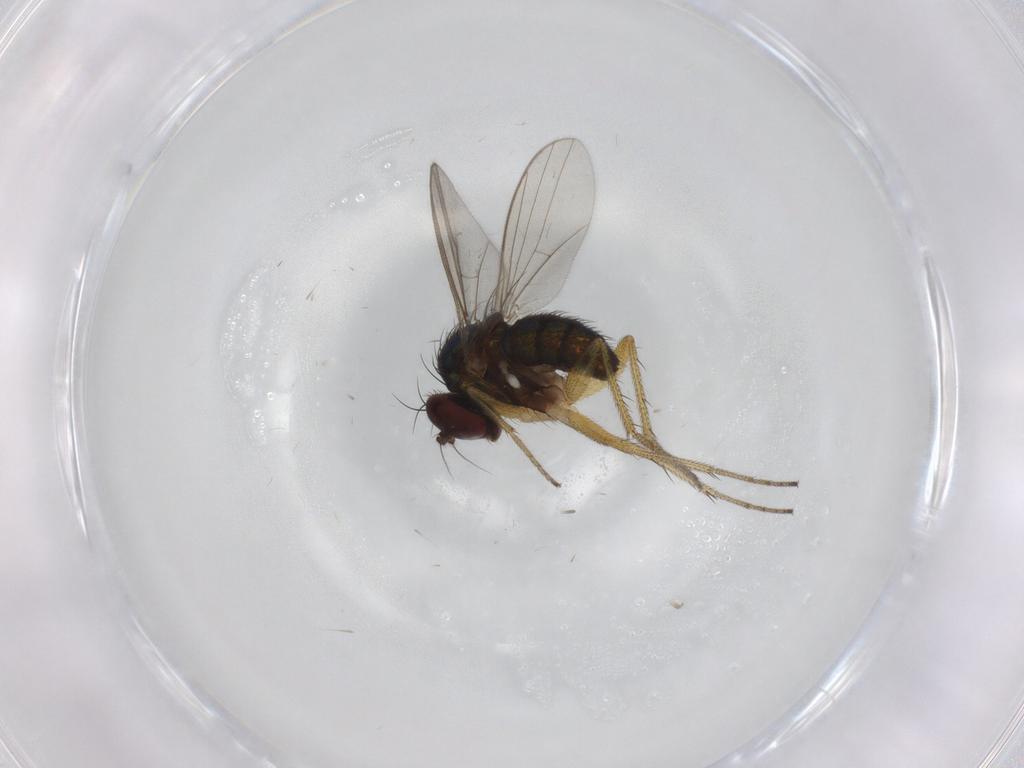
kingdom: Animalia
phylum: Arthropoda
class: Insecta
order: Diptera
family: Dolichopodidae
